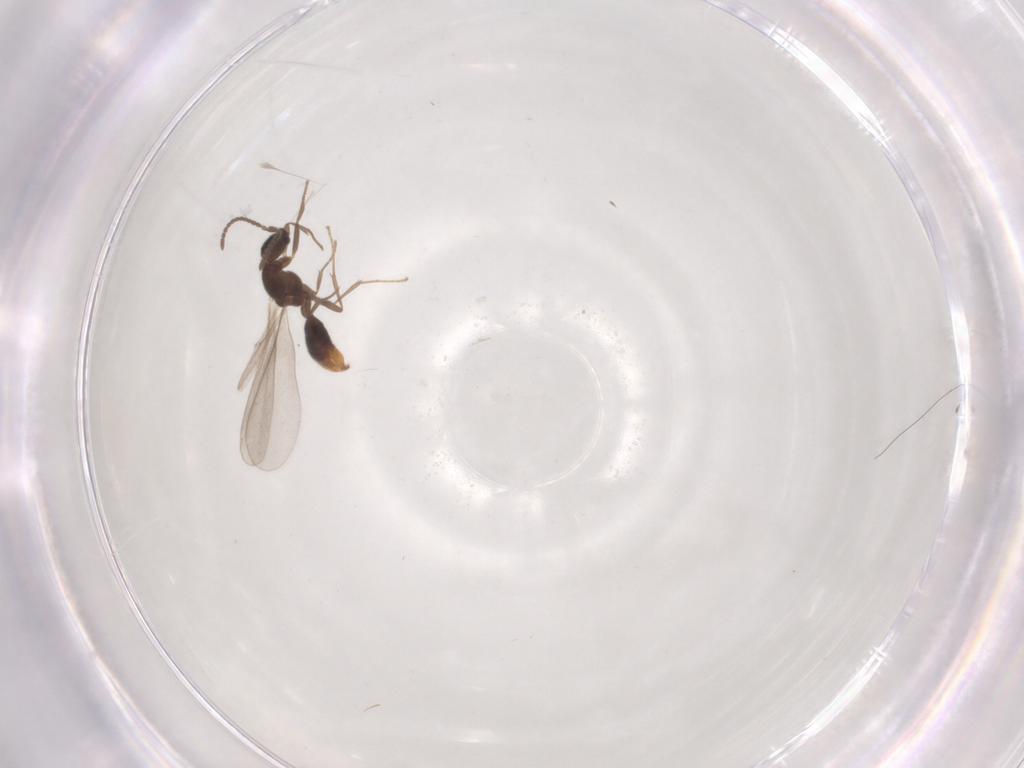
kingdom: Animalia
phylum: Arthropoda
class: Insecta
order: Hymenoptera
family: Formicidae
